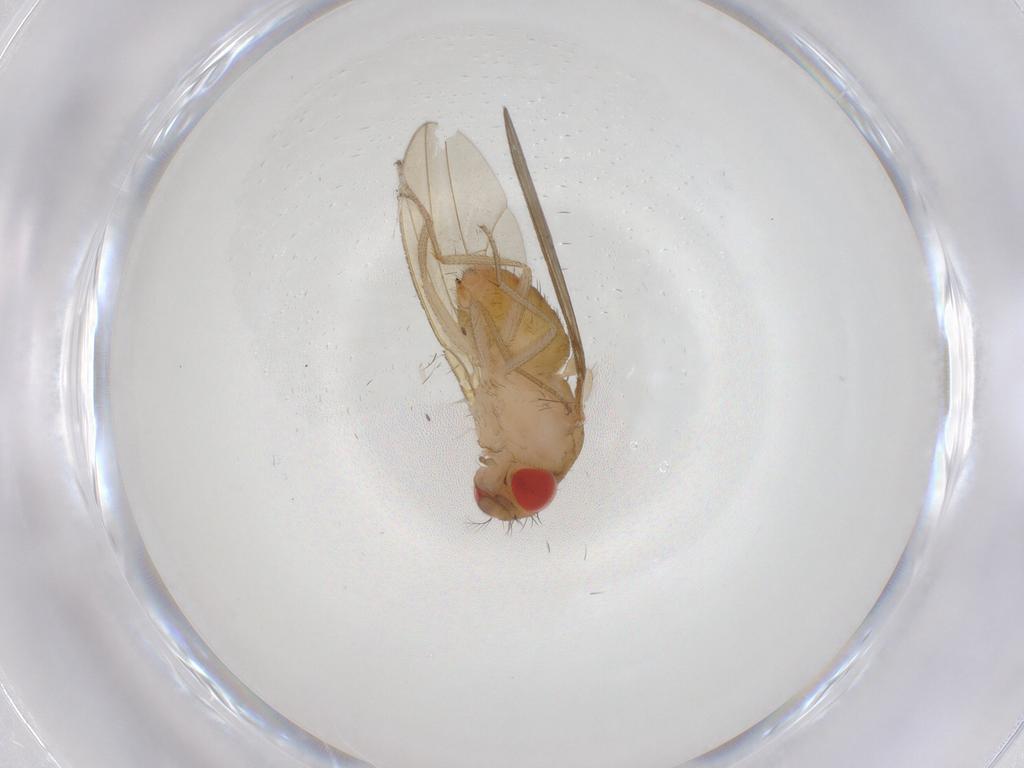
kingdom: Animalia
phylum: Arthropoda
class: Insecta
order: Diptera
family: Drosophilidae
